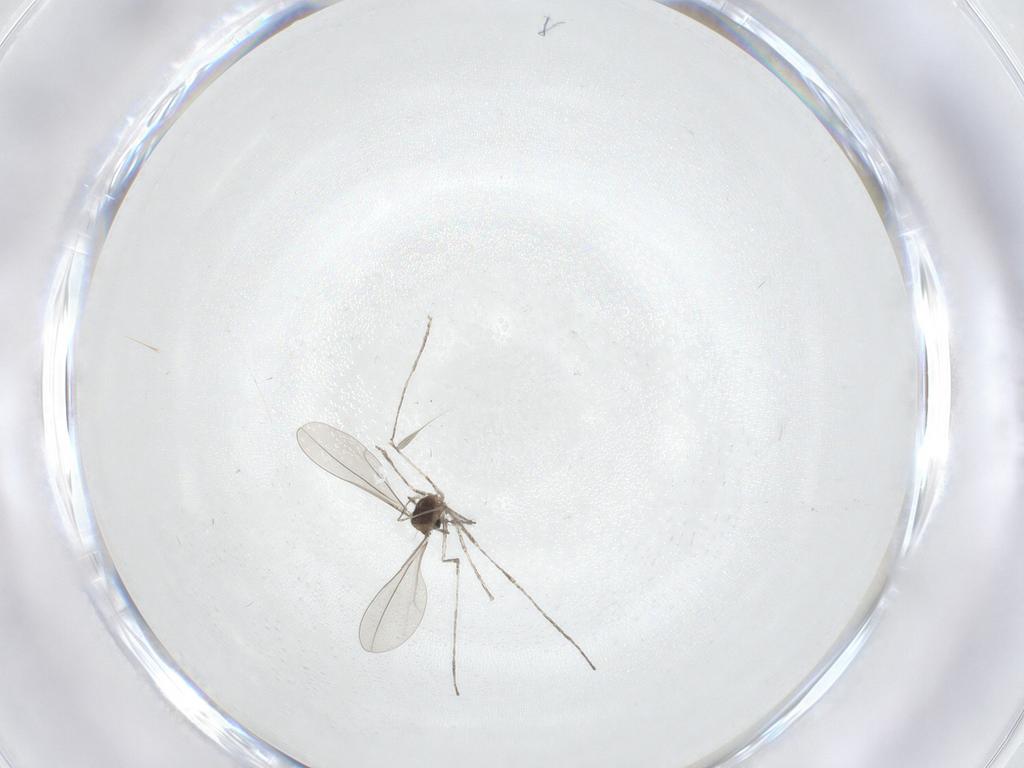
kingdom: Animalia
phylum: Arthropoda
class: Insecta
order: Diptera
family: Cecidomyiidae
